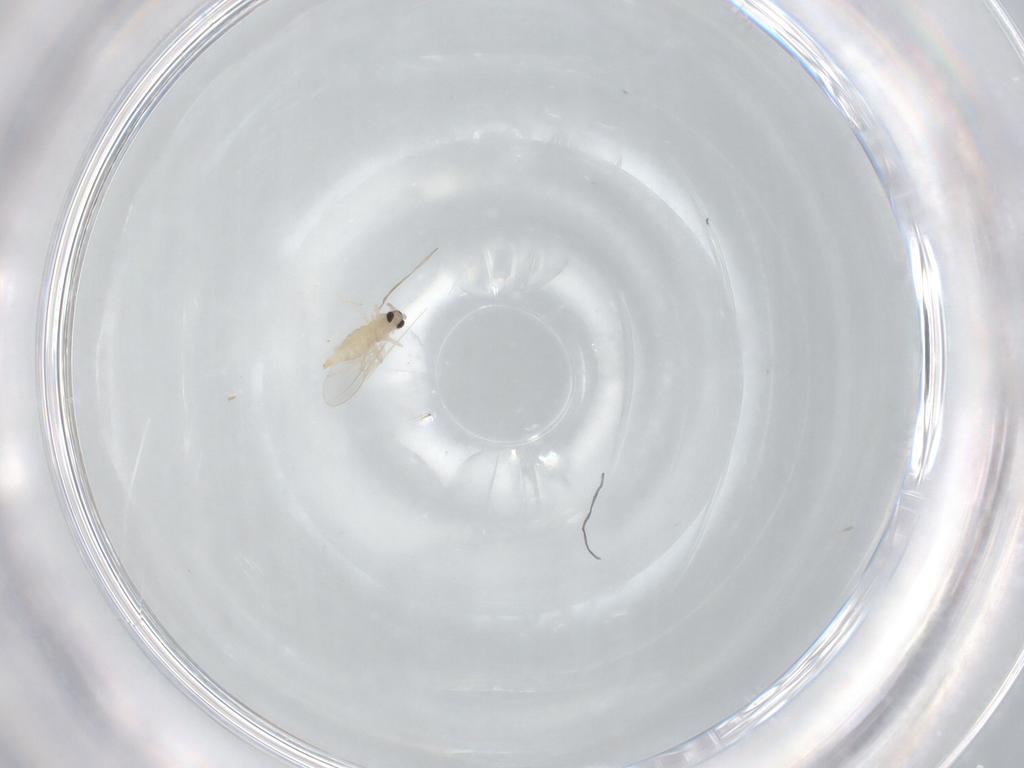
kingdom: Animalia
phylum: Arthropoda
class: Insecta
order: Diptera
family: Cecidomyiidae
